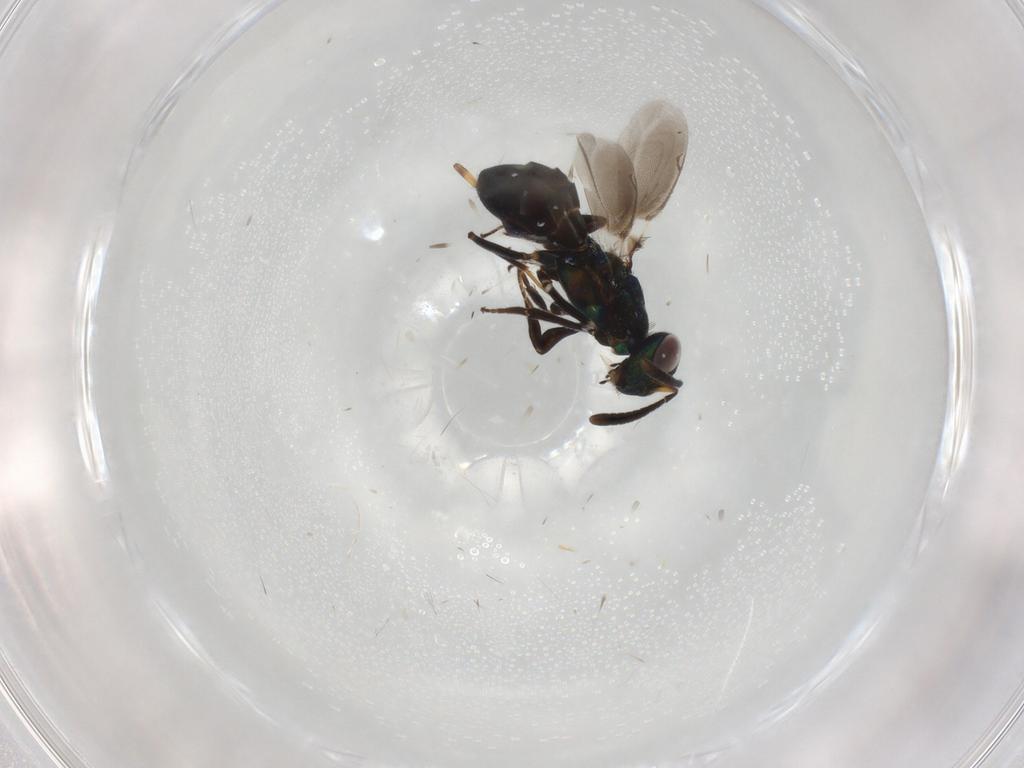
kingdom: Animalia
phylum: Arthropoda
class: Insecta
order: Hymenoptera
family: Eupelmidae
